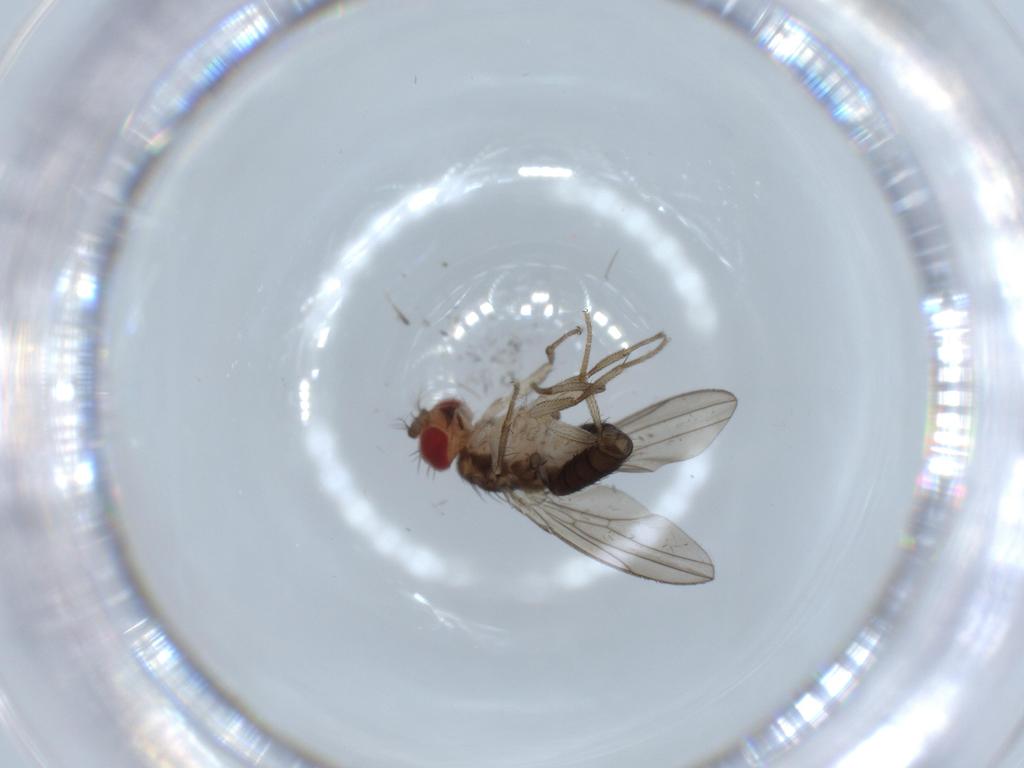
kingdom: Animalia
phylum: Arthropoda
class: Insecta
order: Diptera
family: Drosophilidae
